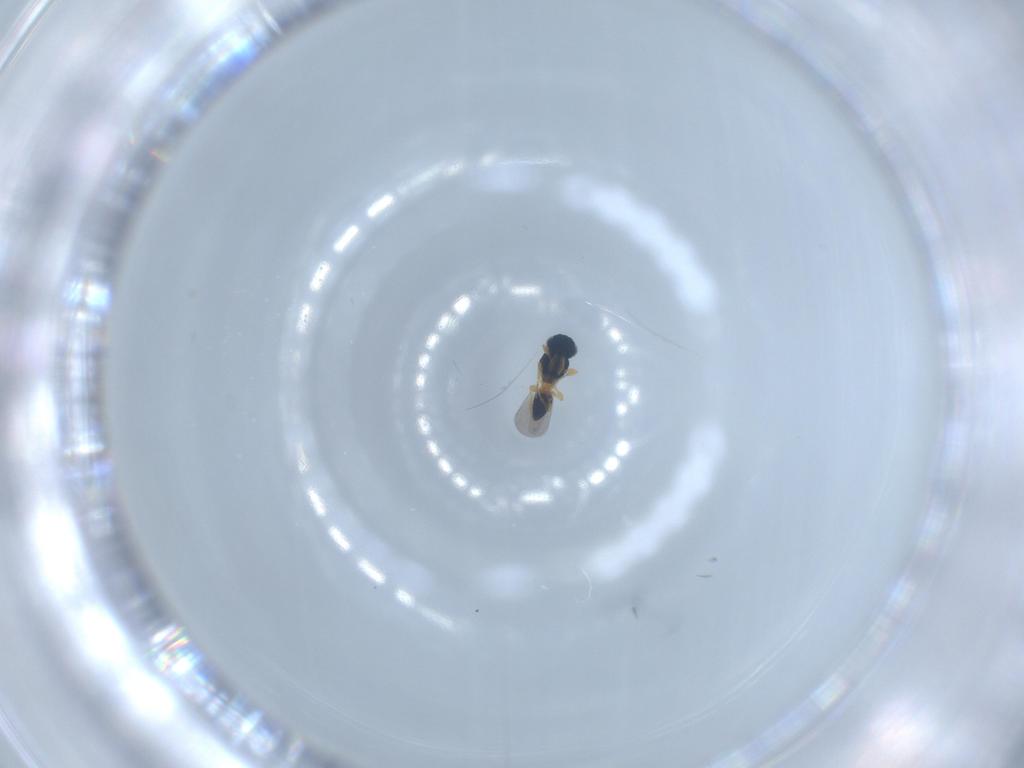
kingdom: Animalia
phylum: Arthropoda
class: Insecta
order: Hymenoptera
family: Platygastridae
